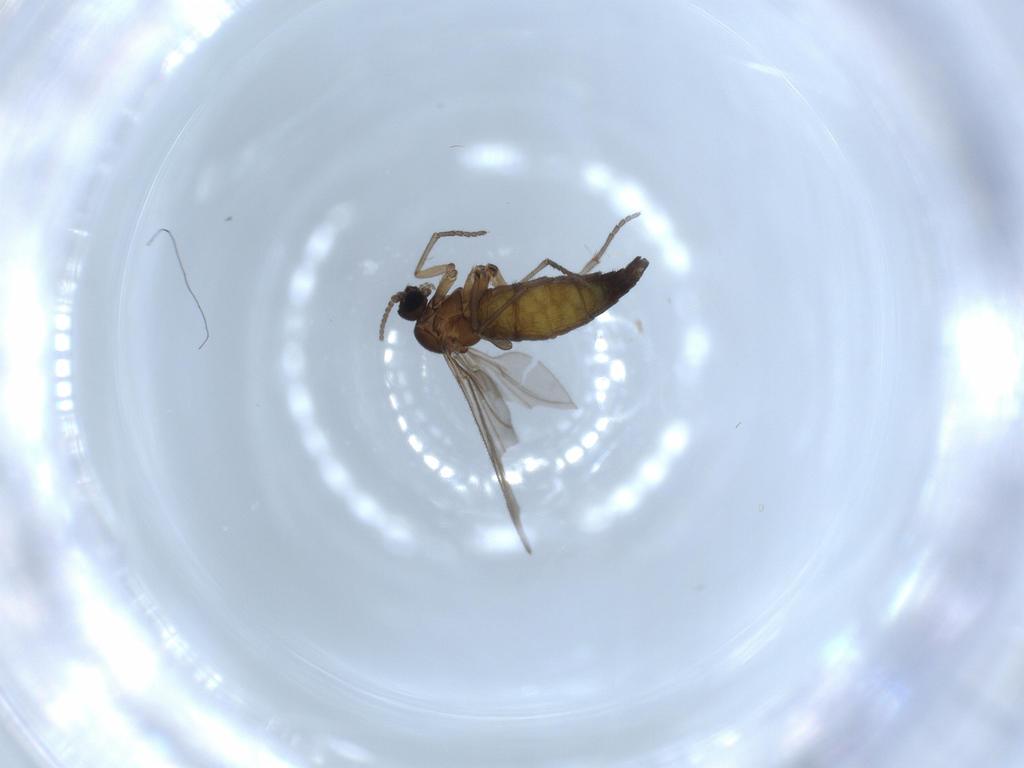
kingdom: Animalia
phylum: Arthropoda
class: Insecta
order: Diptera
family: Sciaridae
